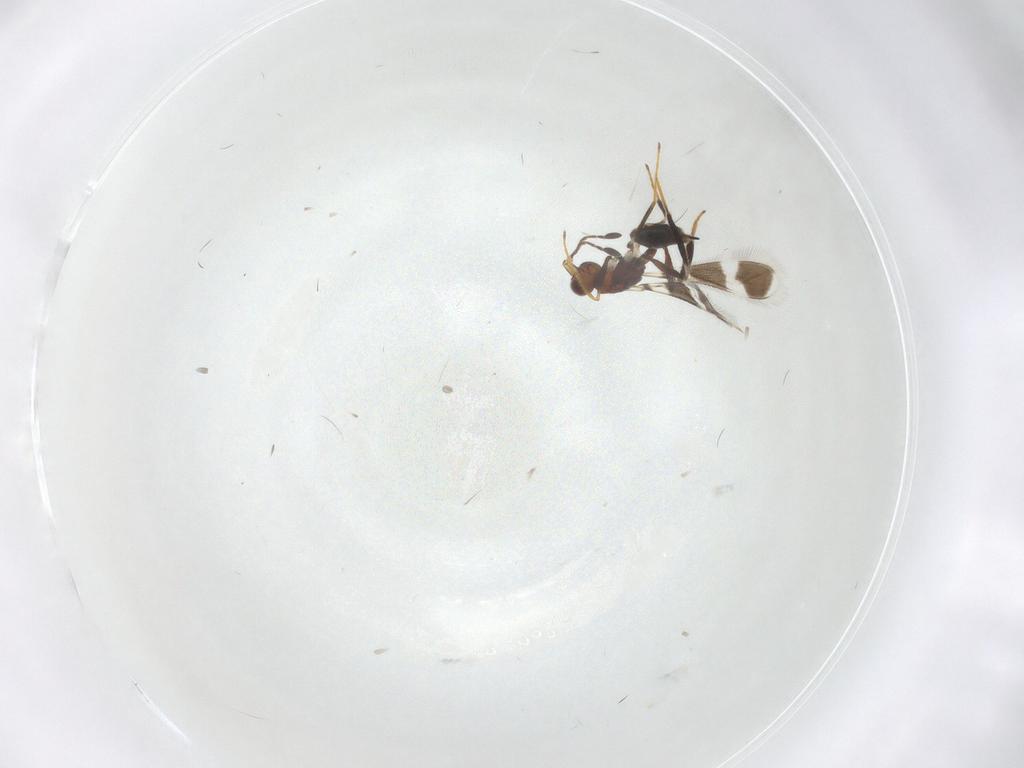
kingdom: Animalia
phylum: Arthropoda
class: Insecta
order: Hymenoptera
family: Mymaridae
